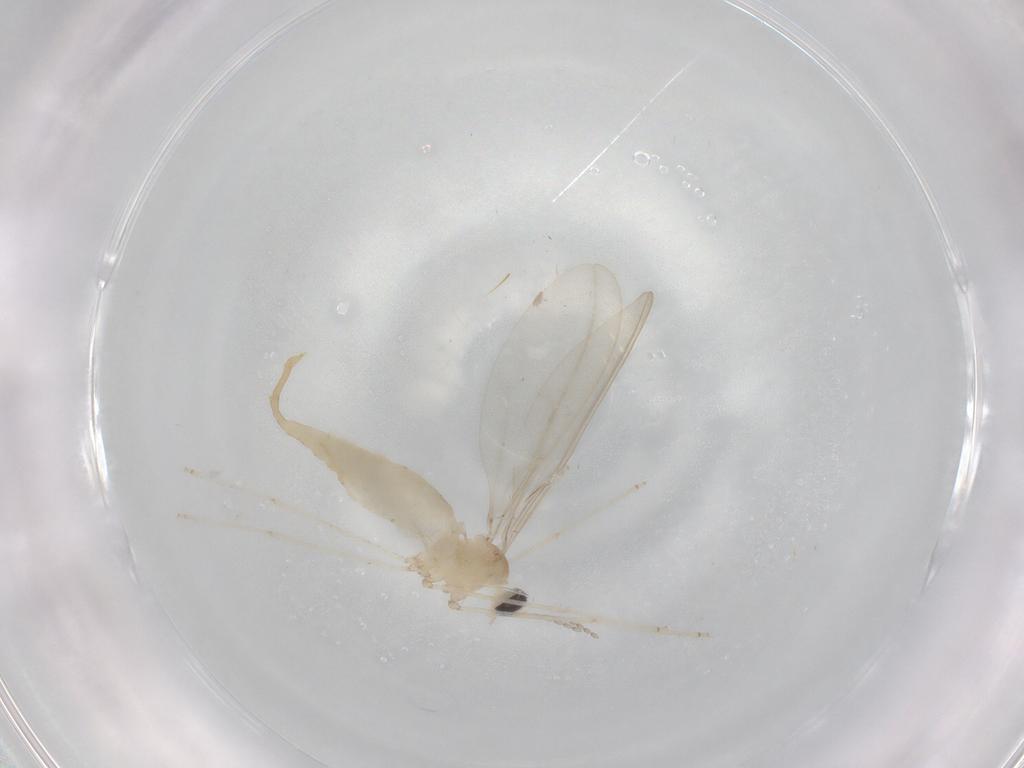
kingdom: Animalia
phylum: Arthropoda
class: Insecta
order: Diptera
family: Cecidomyiidae
